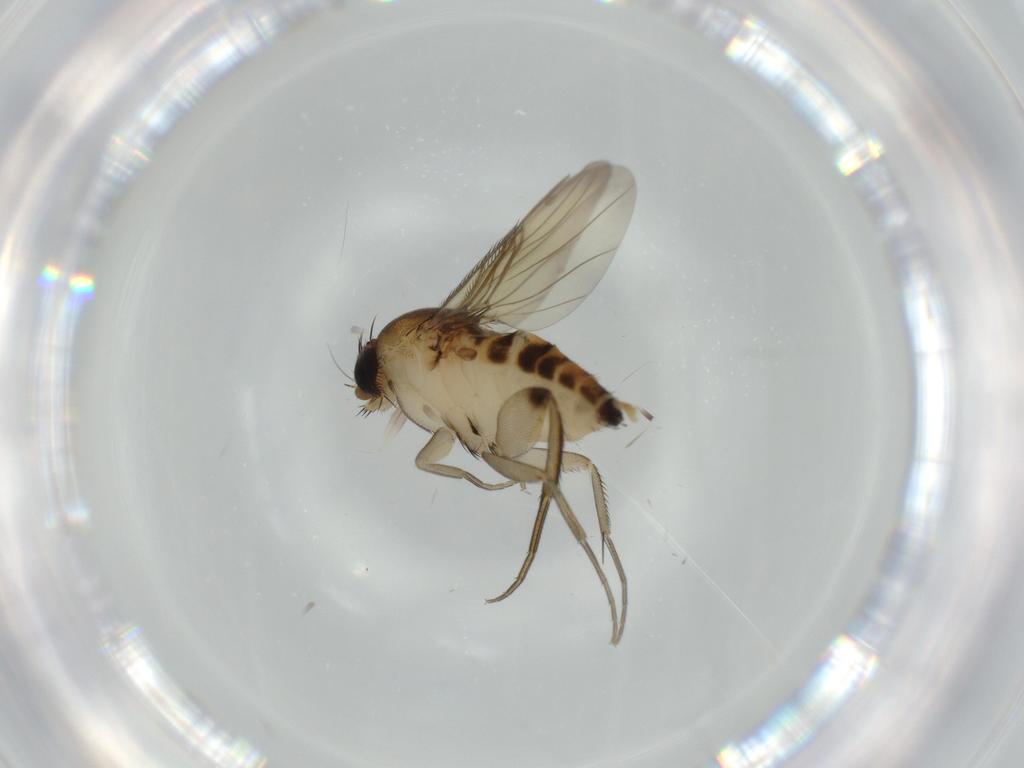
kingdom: Animalia
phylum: Arthropoda
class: Insecta
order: Diptera
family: Phoridae
